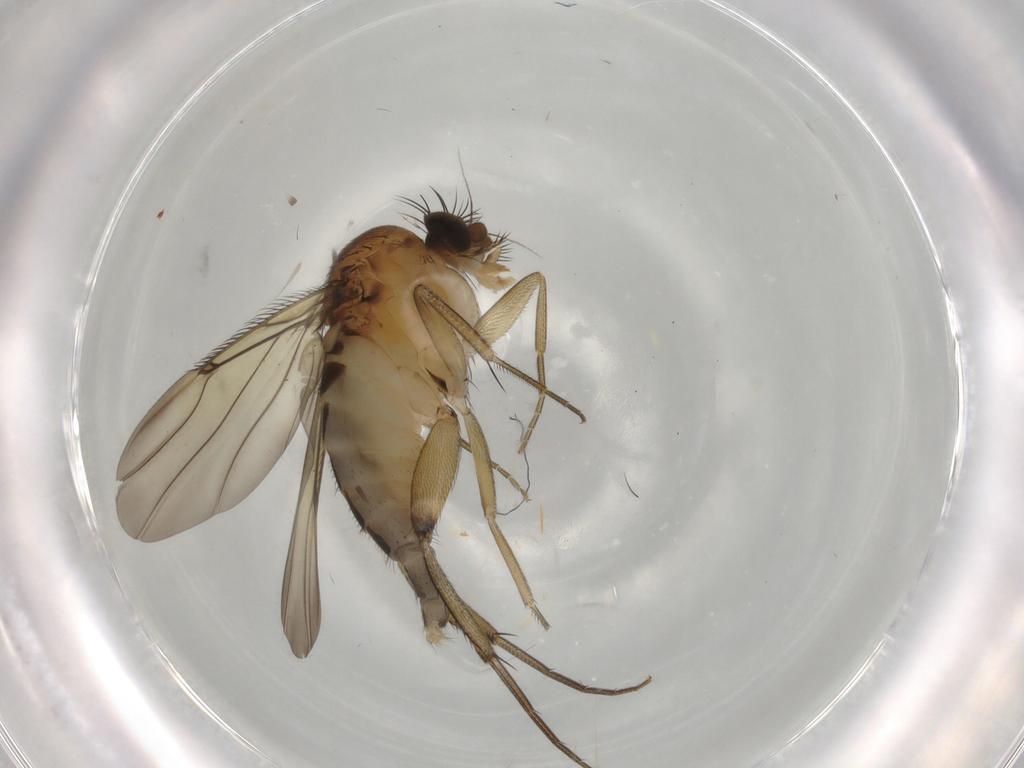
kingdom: Animalia
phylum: Arthropoda
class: Insecta
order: Diptera
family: Phoridae
